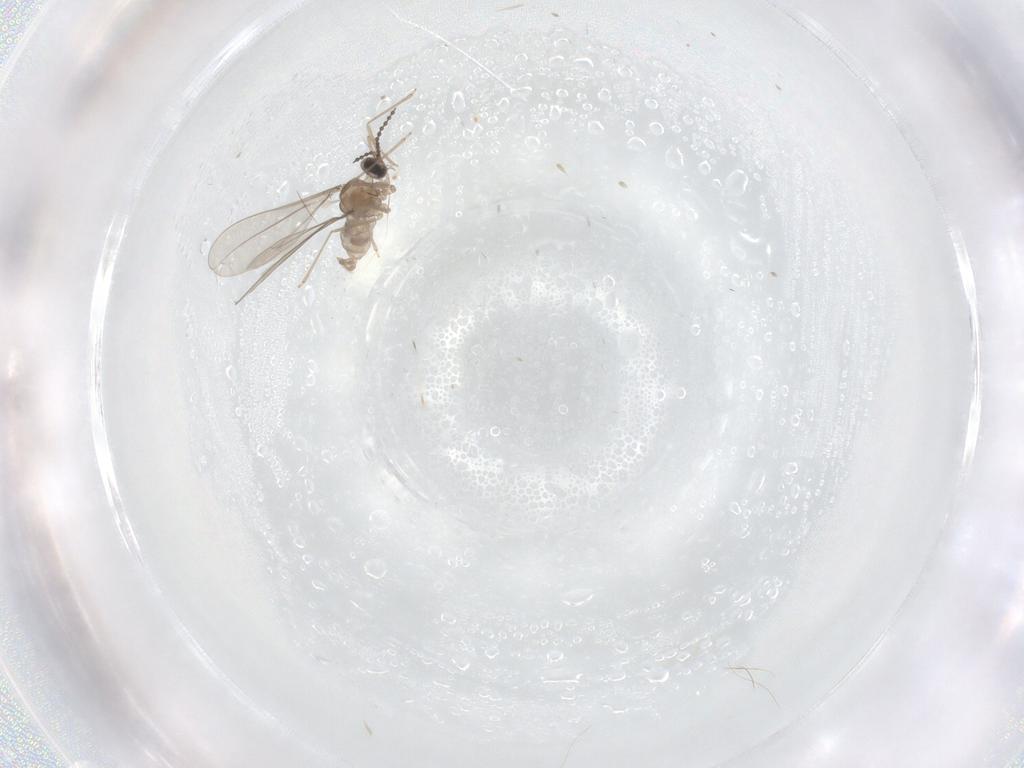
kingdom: Animalia
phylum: Arthropoda
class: Insecta
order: Diptera
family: Cecidomyiidae
